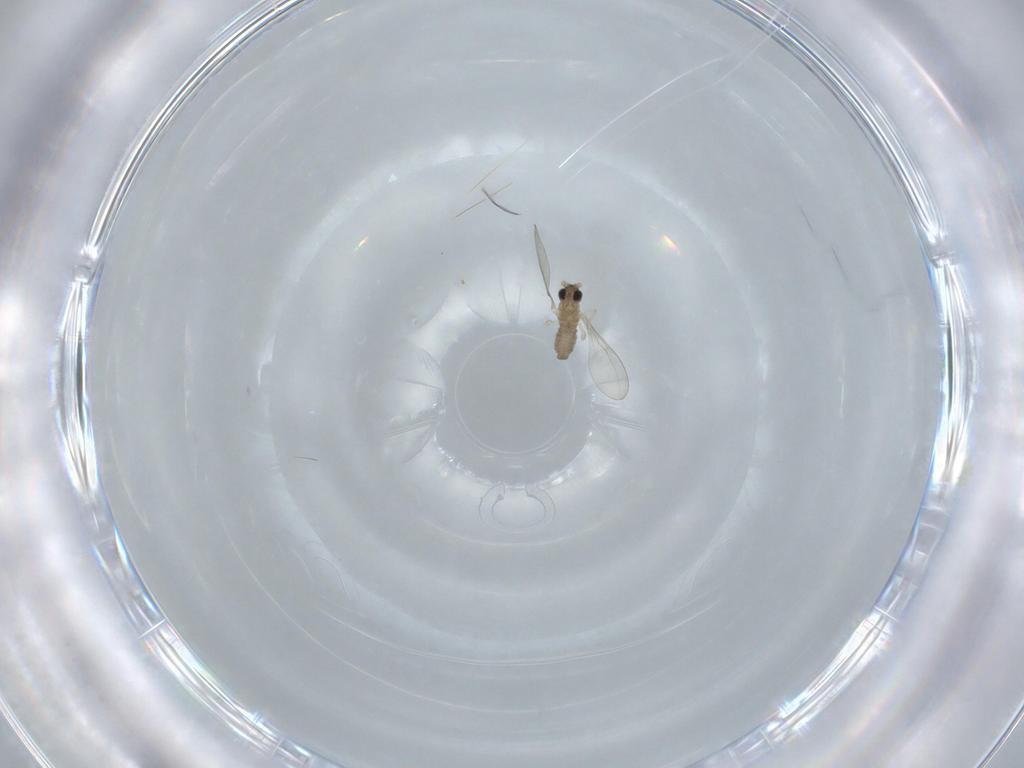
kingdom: Animalia
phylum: Arthropoda
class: Insecta
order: Diptera
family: Cecidomyiidae
